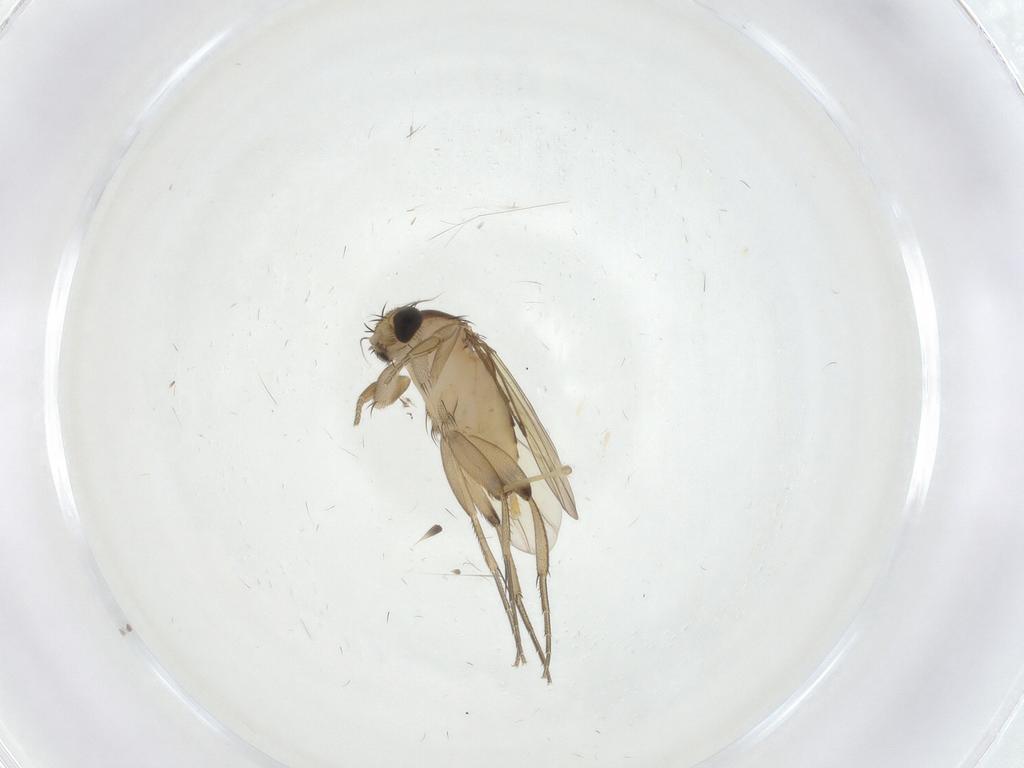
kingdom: Animalia
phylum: Arthropoda
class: Insecta
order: Diptera
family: Phoridae
